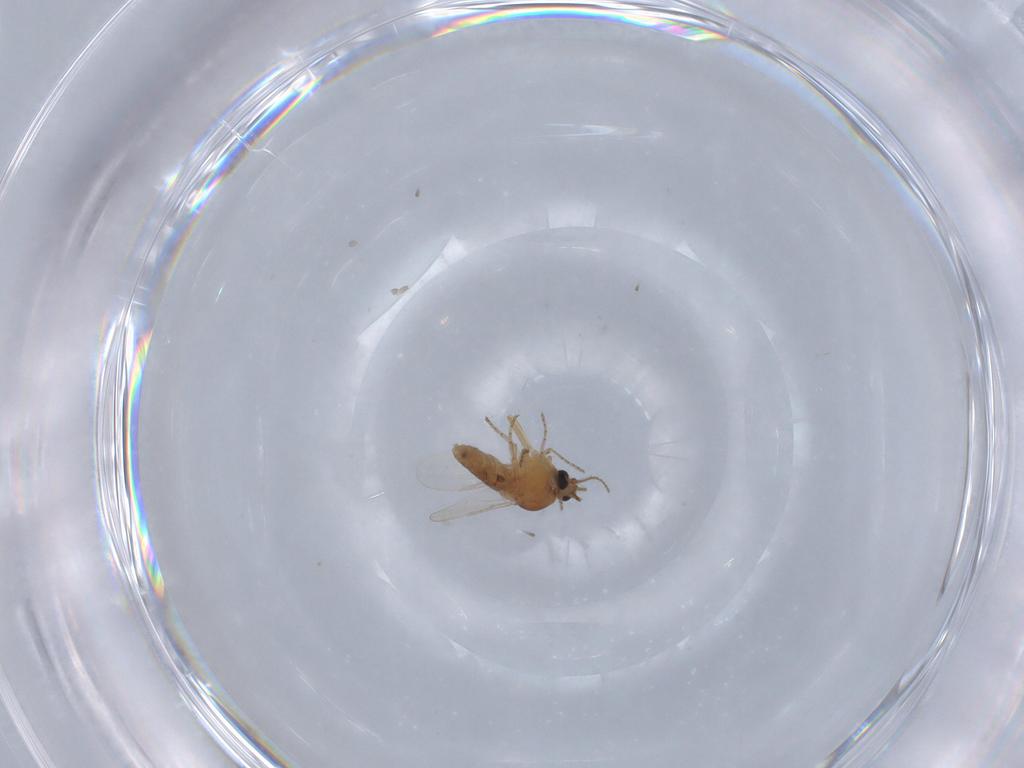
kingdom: Animalia
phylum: Arthropoda
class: Insecta
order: Diptera
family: Ceratopogonidae
